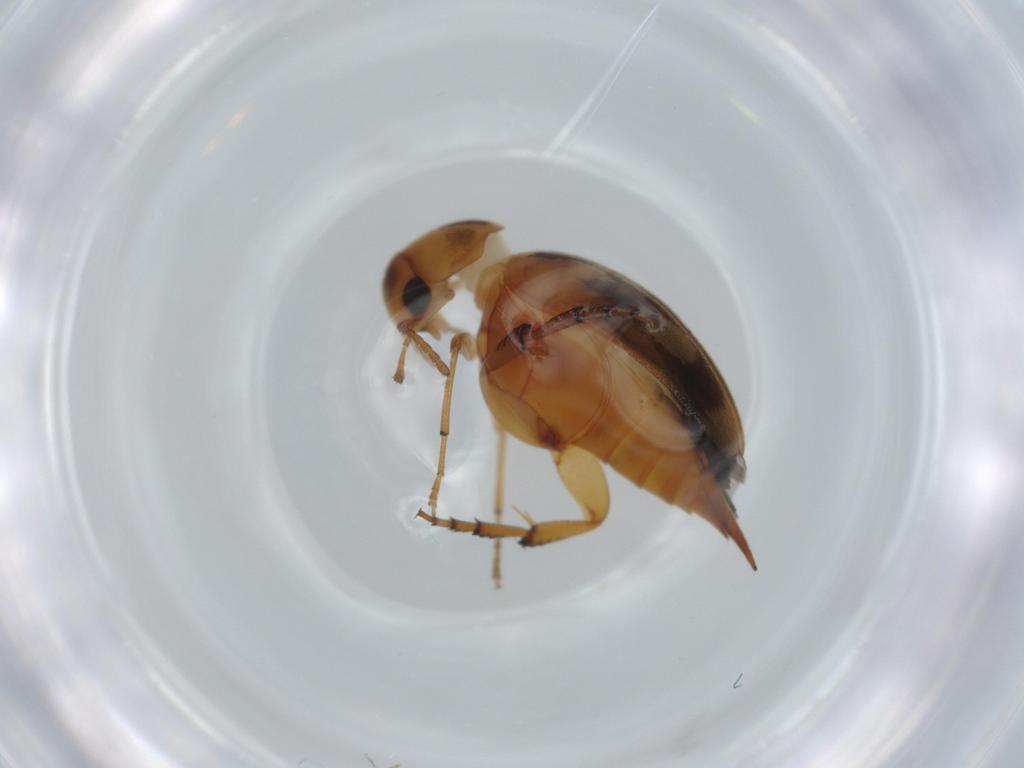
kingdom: Animalia
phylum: Arthropoda
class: Insecta
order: Coleoptera
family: Mordellidae
